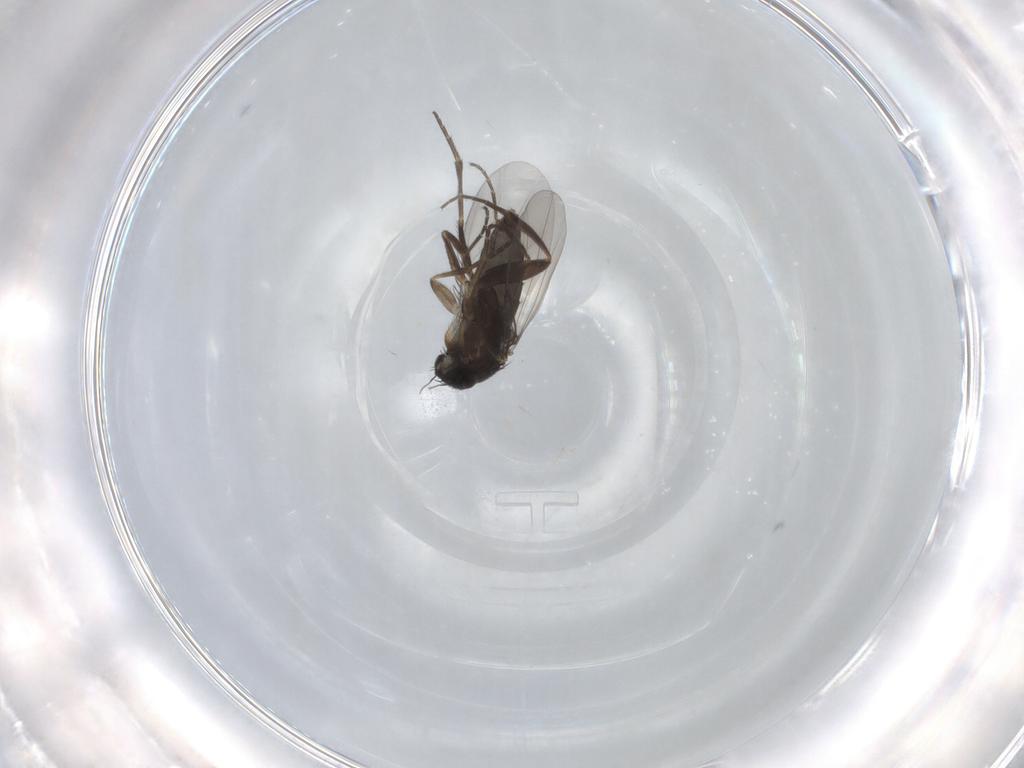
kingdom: Animalia
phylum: Arthropoda
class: Insecta
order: Diptera
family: Phoridae
